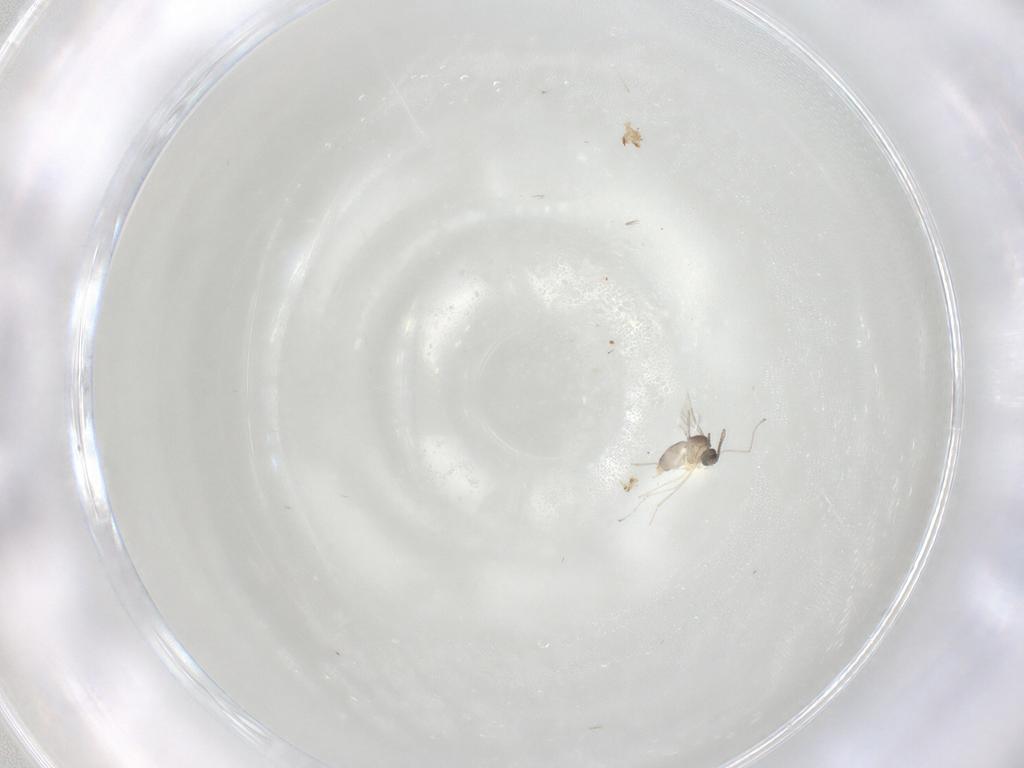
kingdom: Animalia
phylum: Arthropoda
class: Insecta
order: Diptera
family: Cecidomyiidae
